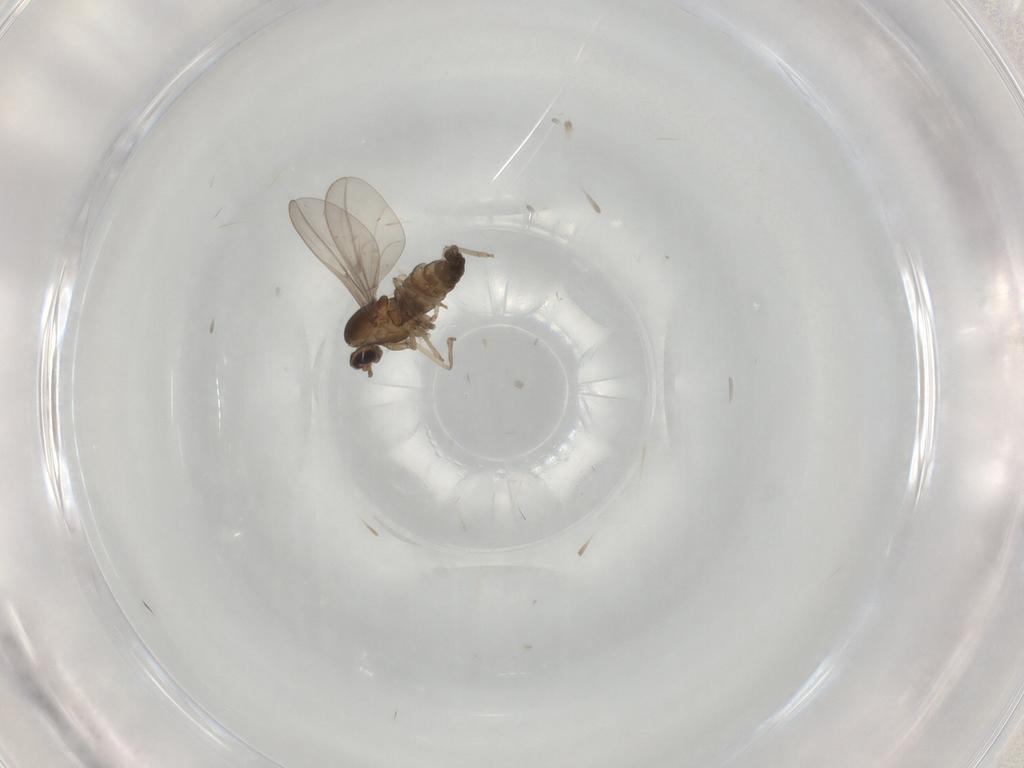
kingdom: Animalia
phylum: Arthropoda
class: Insecta
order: Diptera
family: Cecidomyiidae
